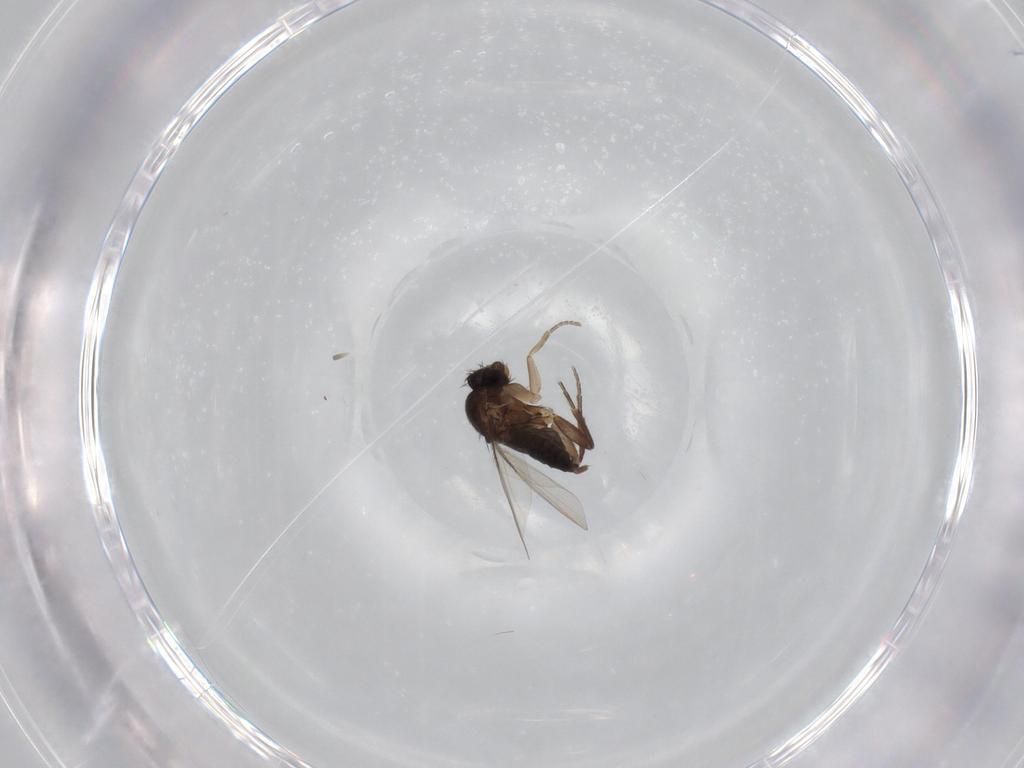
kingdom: Animalia
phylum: Arthropoda
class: Insecta
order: Diptera
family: Phoridae
